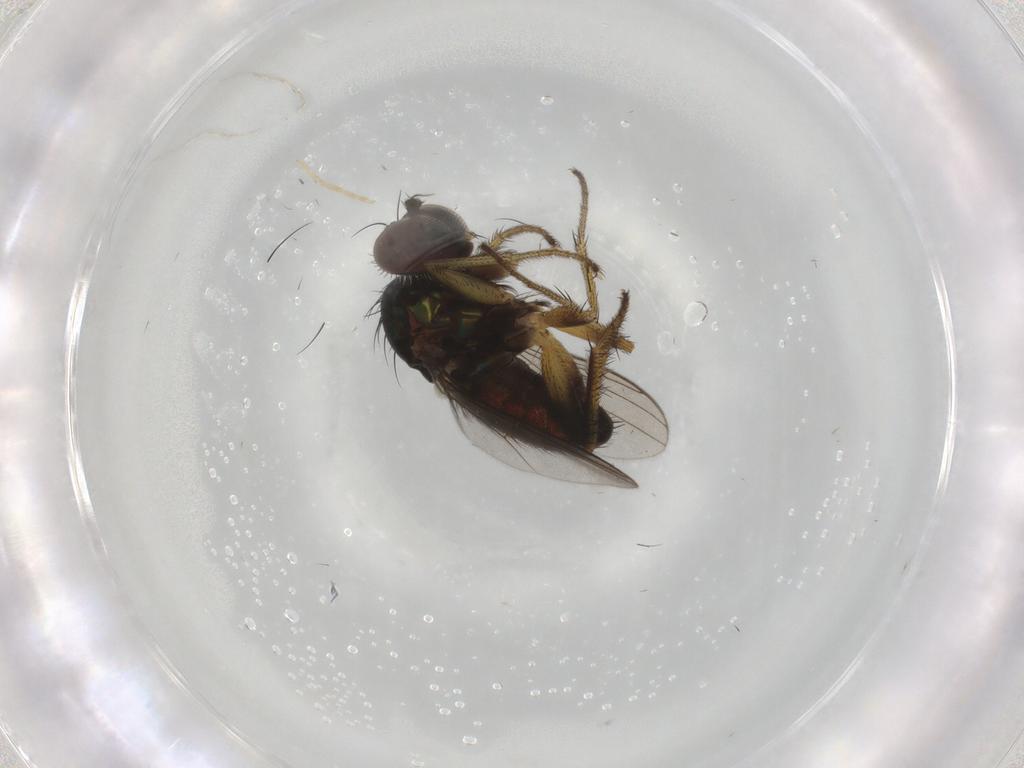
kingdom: Animalia
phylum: Arthropoda
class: Insecta
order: Diptera
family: Dolichopodidae
